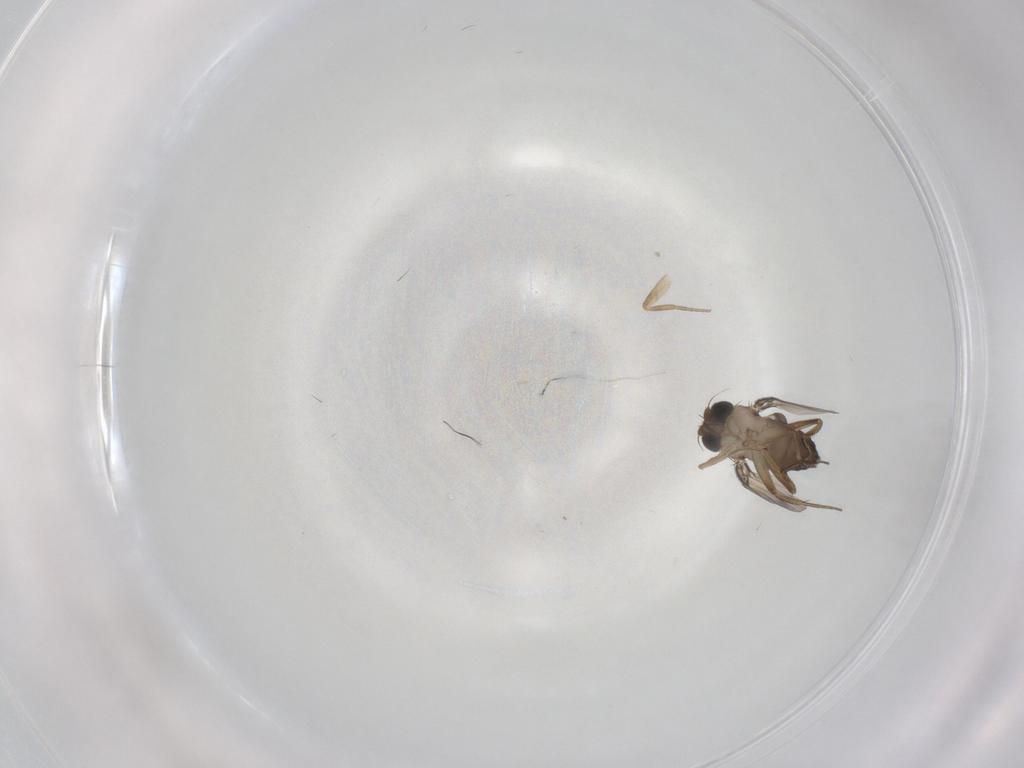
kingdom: Animalia
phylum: Arthropoda
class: Insecta
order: Diptera
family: Phoridae
